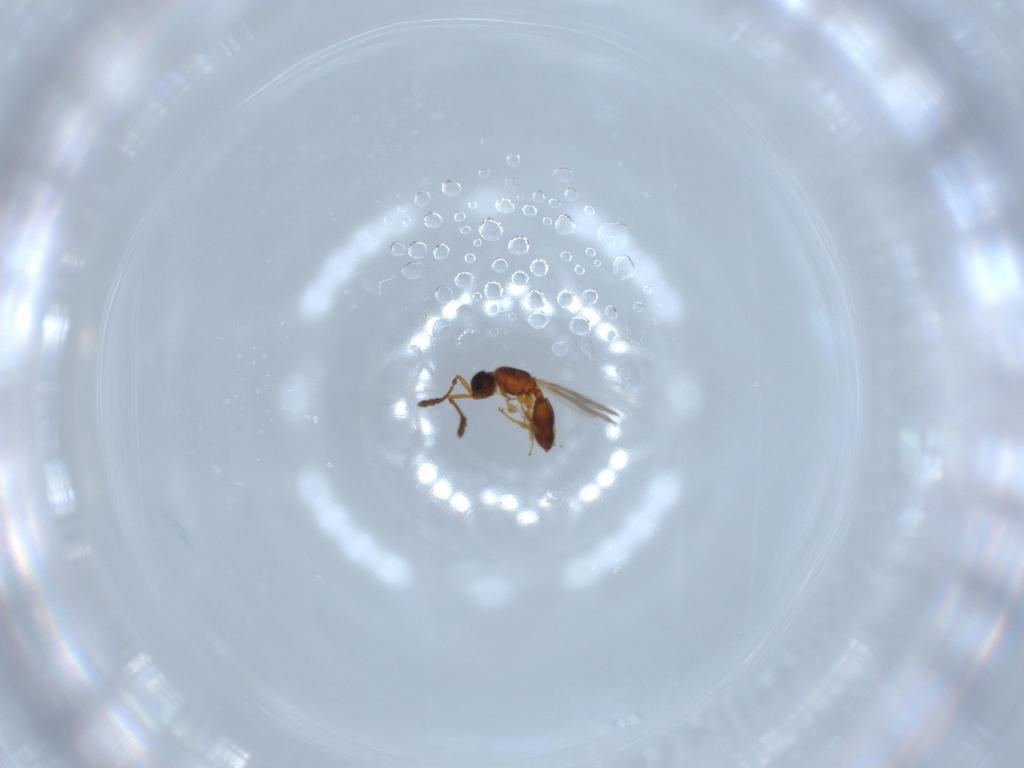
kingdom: Animalia
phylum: Arthropoda
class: Insecta
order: Hymenoptera
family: Diapriidae
